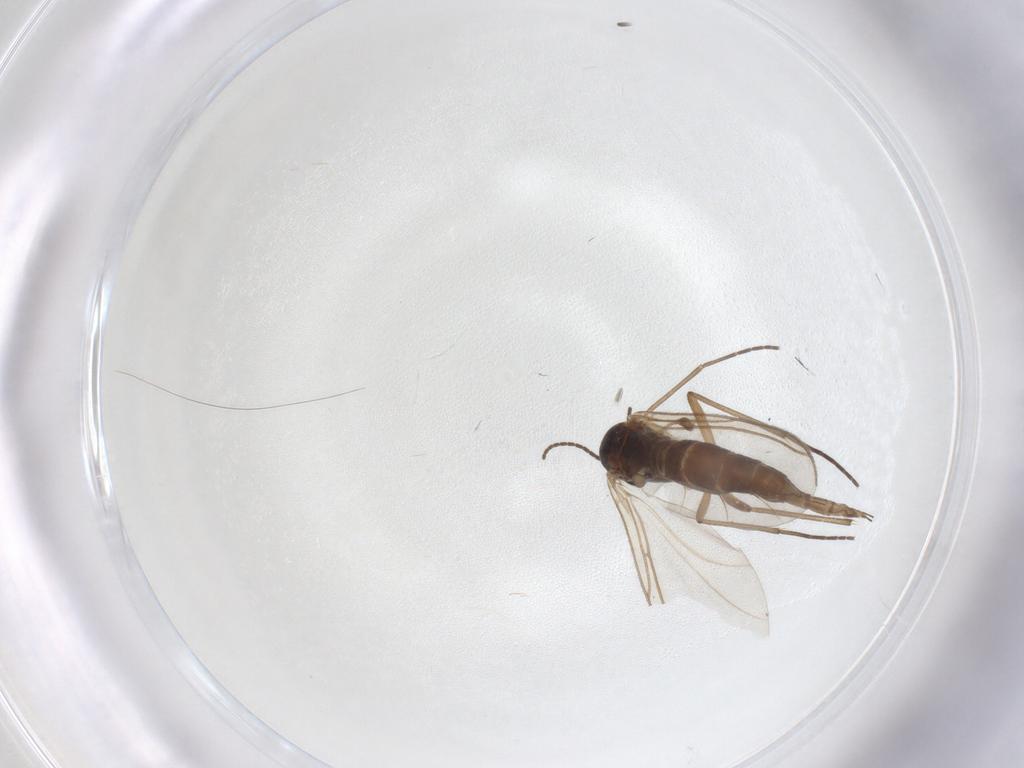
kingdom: Animalia
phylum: Arthropoda
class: Insecta
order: Diptera
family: Sciaridae
